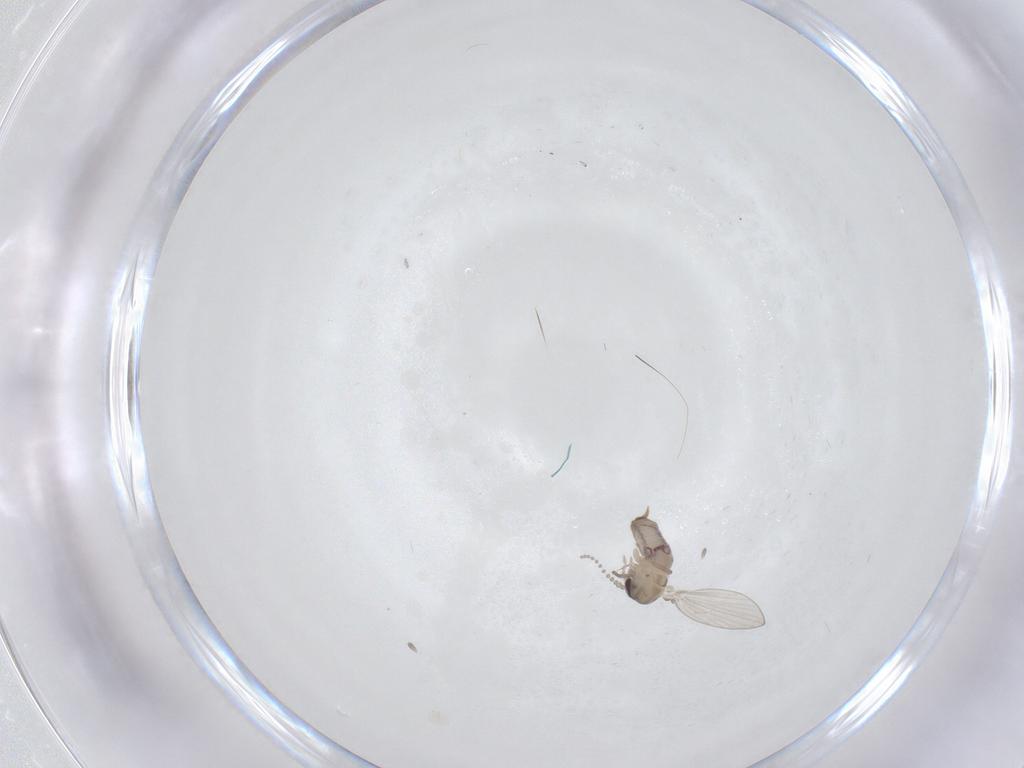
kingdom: Animalia
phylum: Arthropoda
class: Insecta
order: Diptera
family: Psychodidae
